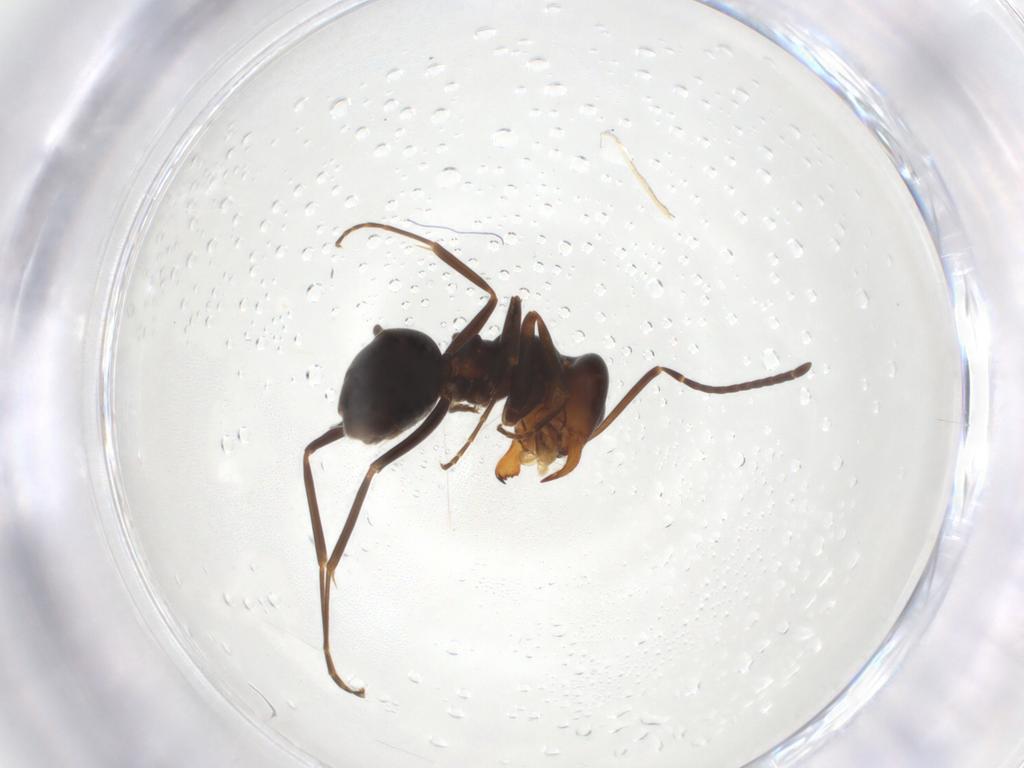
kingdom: Animalia
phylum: Arthropoda
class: Insecta
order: Hymenoptera
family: Formicidae
